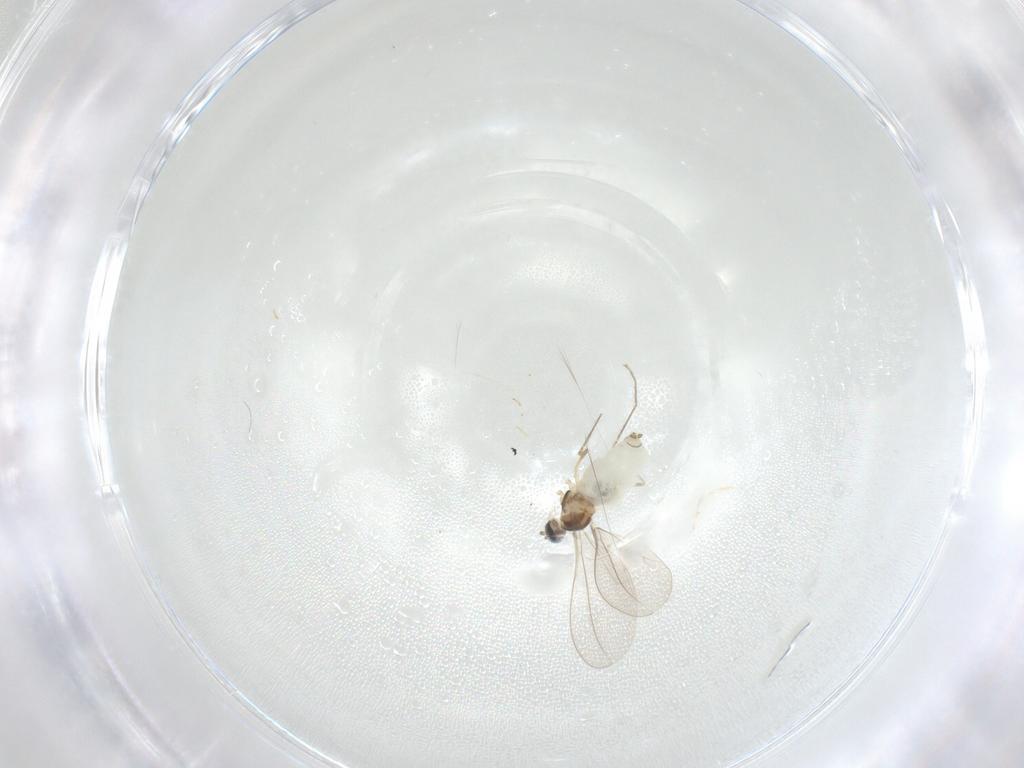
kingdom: Animalia
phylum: Arthropoda
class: Insecta
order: Diptera
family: Cecidomyiidae
